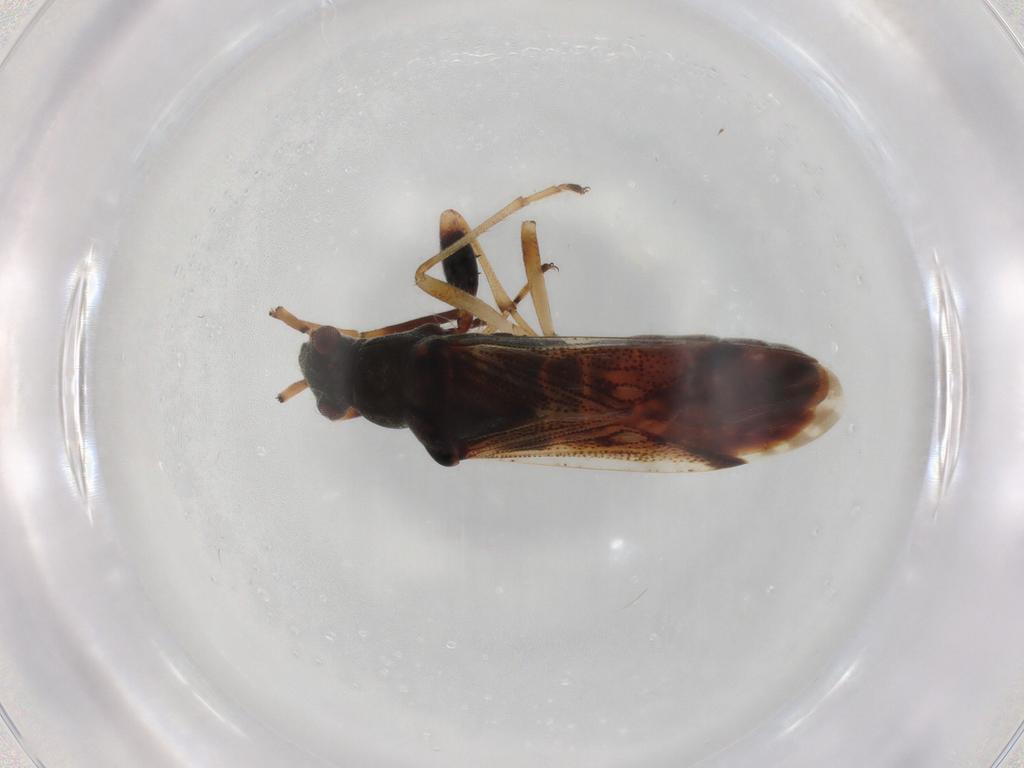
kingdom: Animalia
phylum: Arthropoda
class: Insecta
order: Hemiptera
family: Rhyparochromidae
